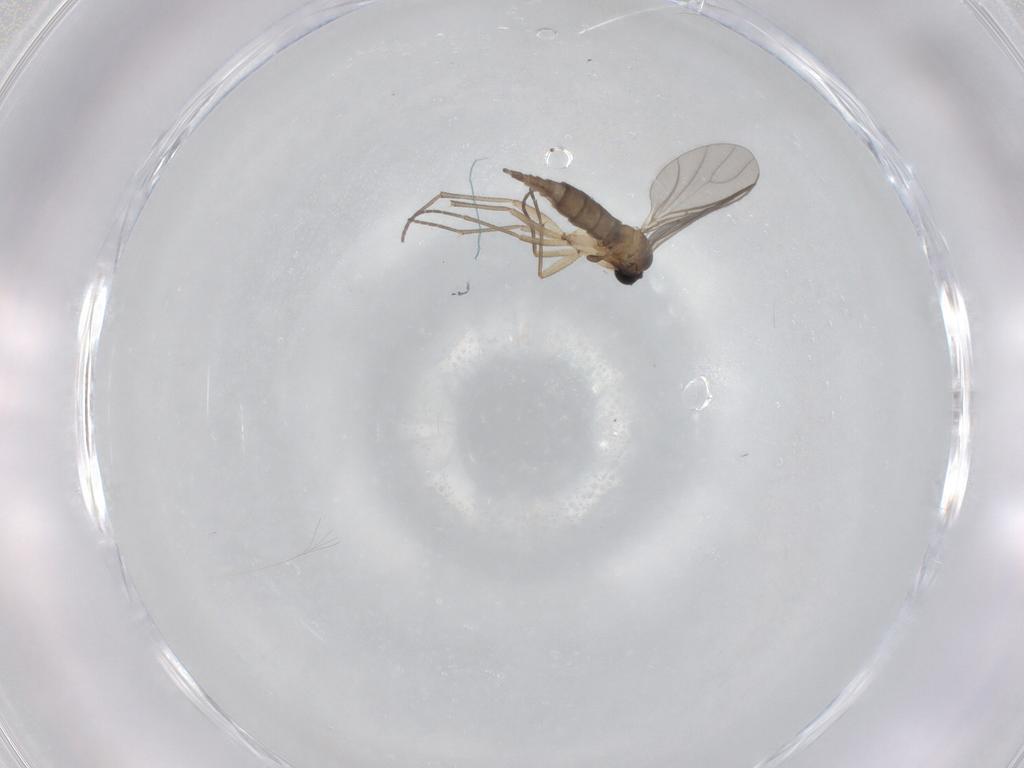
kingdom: Animalia
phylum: Arthropoda
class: Insecta
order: Diptera
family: Sciaridae
